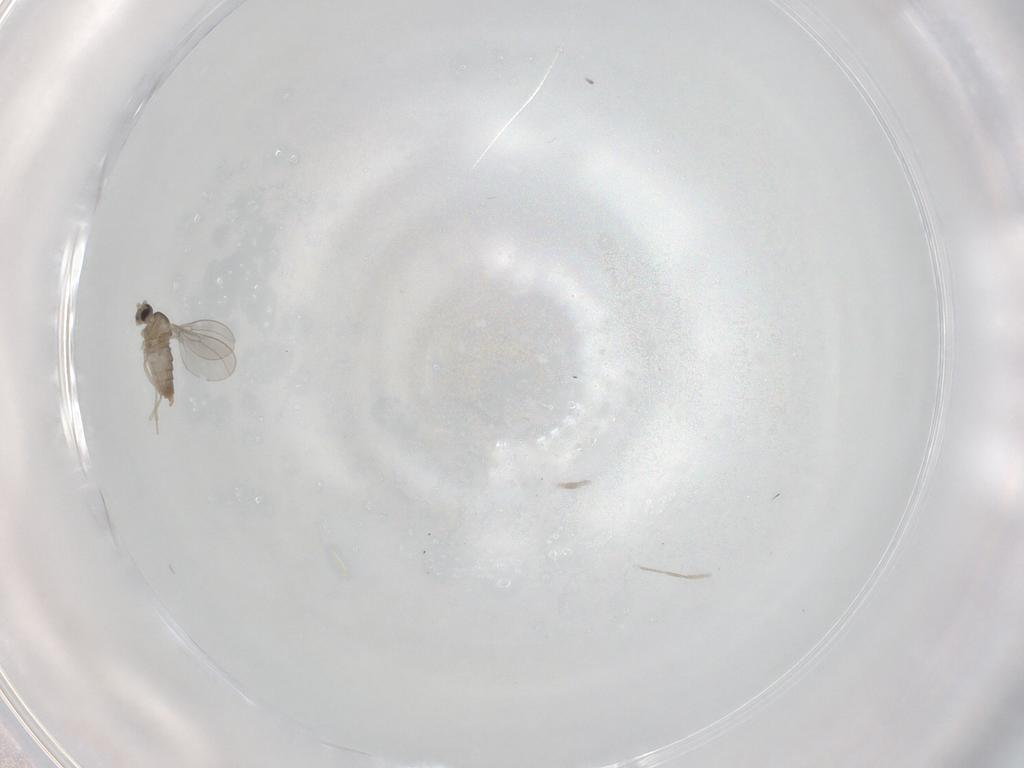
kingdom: Animalia
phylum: Arthropoda
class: Insecta
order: Diptera
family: Cecidomyiidae
